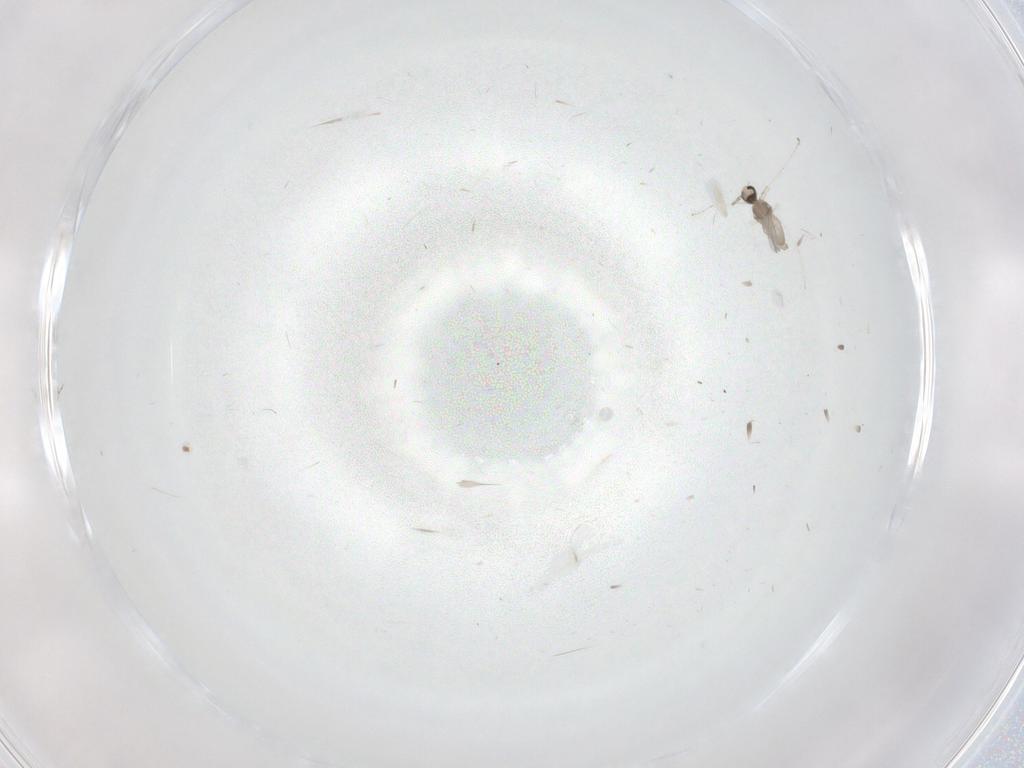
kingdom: Animalia
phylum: Arthropoda
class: Insecta
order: Diptera
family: Cecidomyiidae
